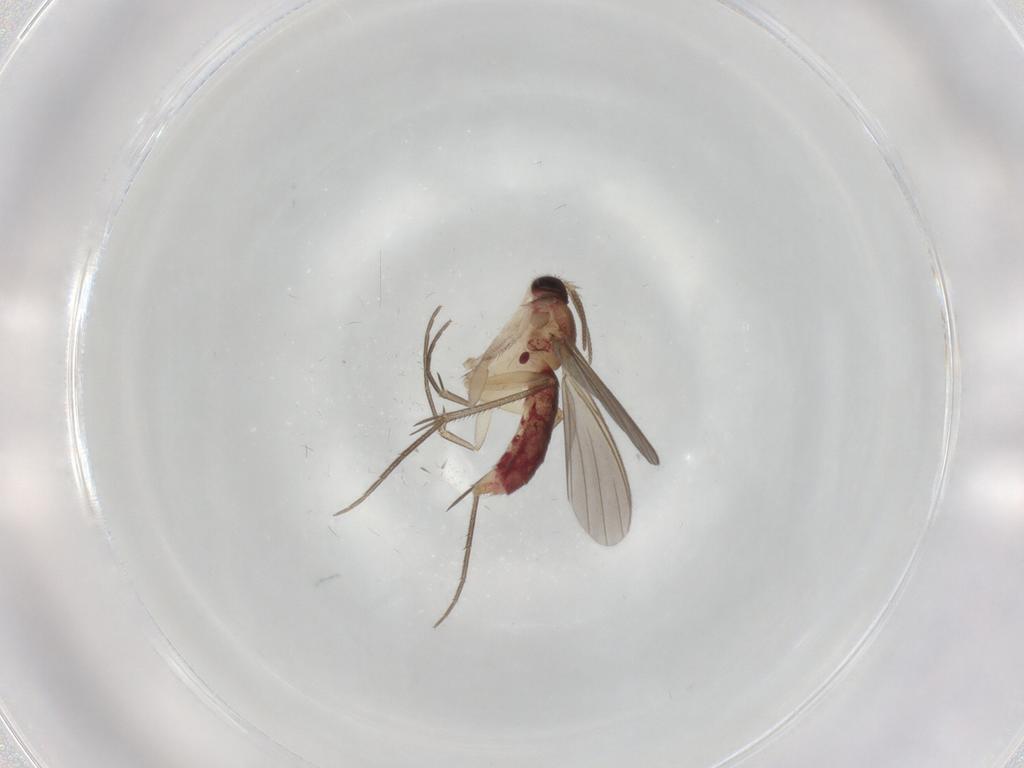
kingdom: Animalia
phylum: Arthropoda
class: Insecta
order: Diptera
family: Mycetophilidae
